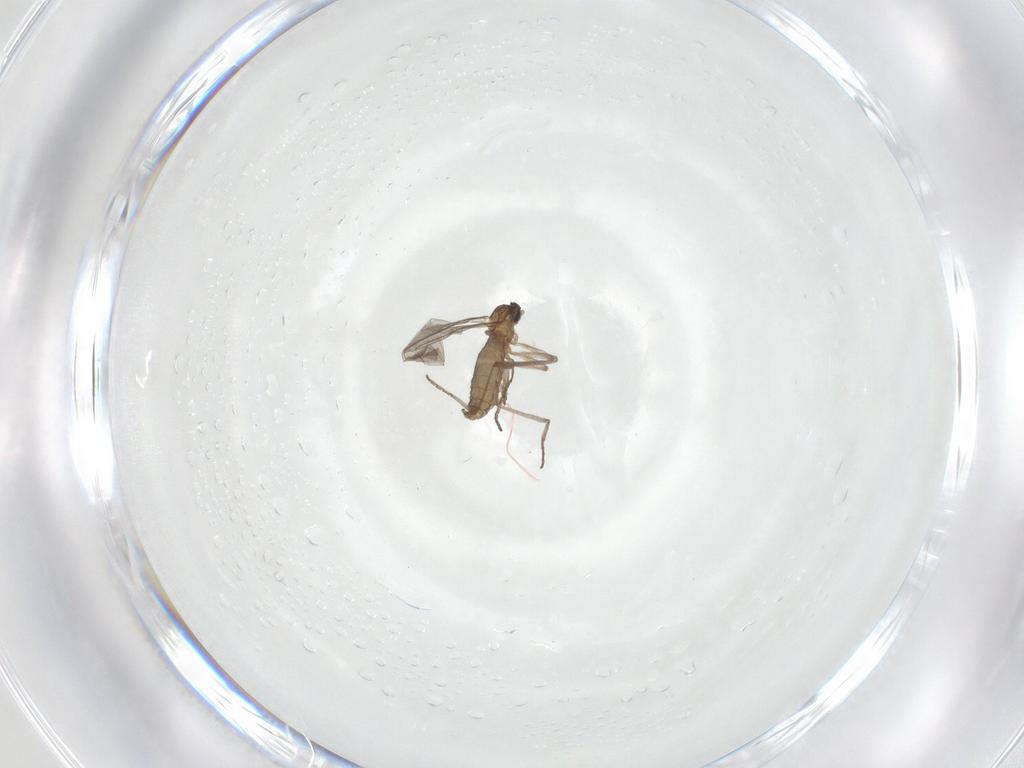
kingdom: Animalia
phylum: Arthropoda
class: Insecta
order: Diptera
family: Cecidomyiidae
